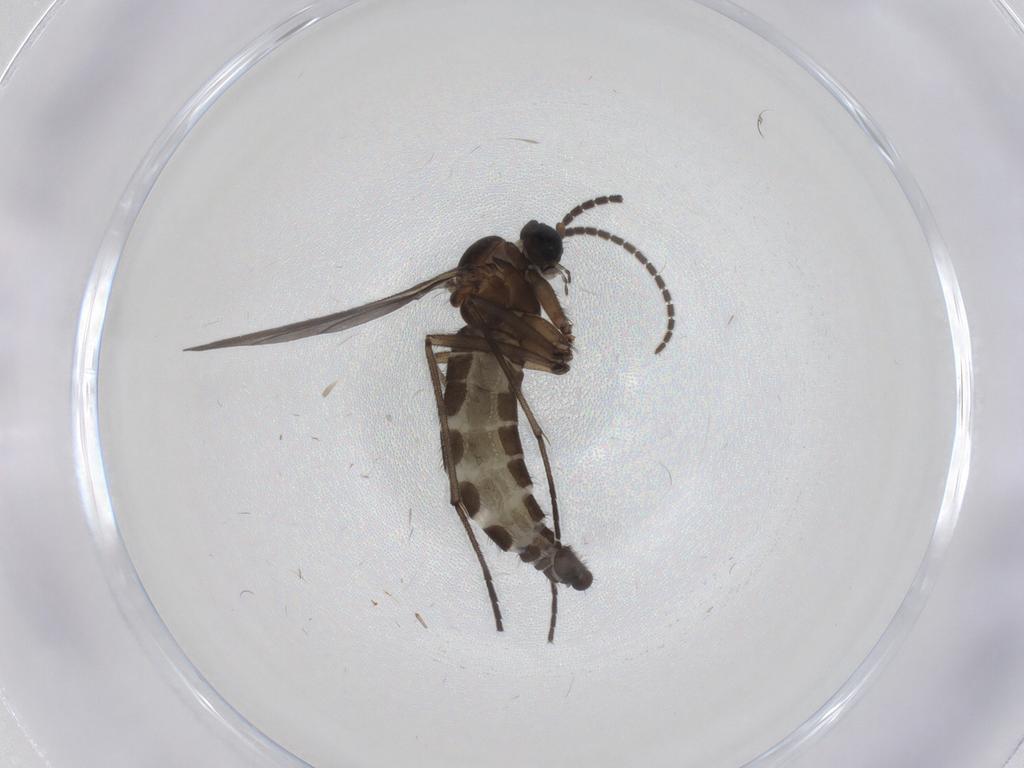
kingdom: Animalia
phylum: Arthropoda
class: Insecta
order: Diptera
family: Sciaridae
